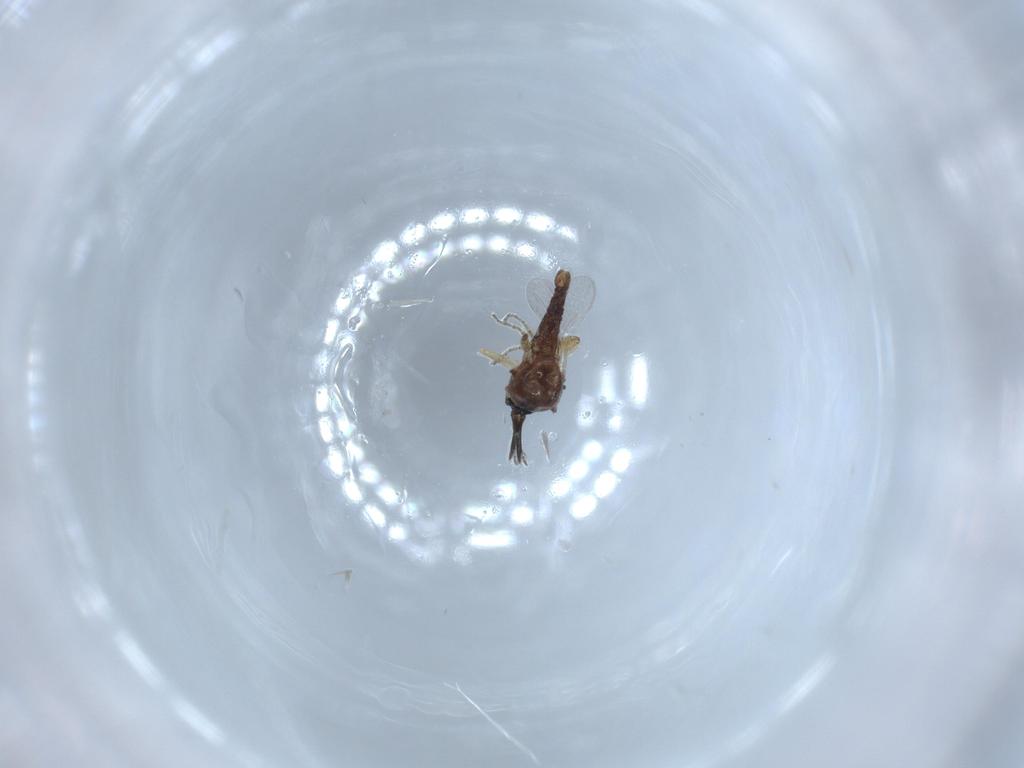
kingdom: Animalia
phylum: Arthropoda
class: Insecta
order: Diptera
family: Ceratopogonidae
